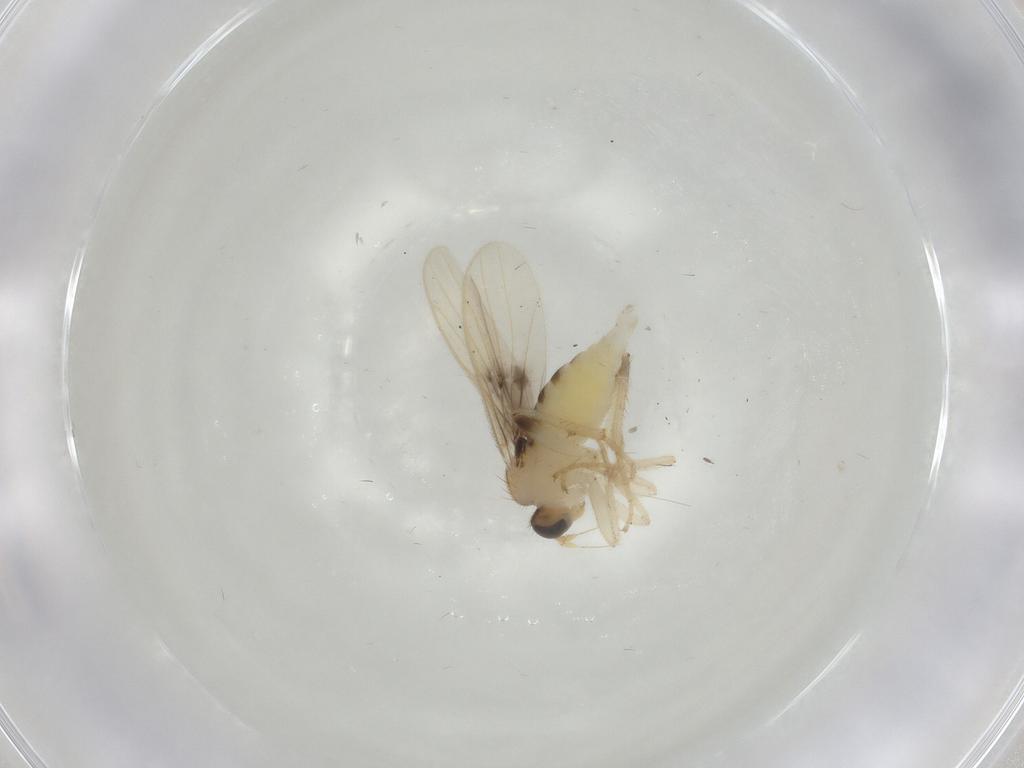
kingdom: Animalia
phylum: Arthropoda
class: Insecta
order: Diptera
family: Hybotidae
